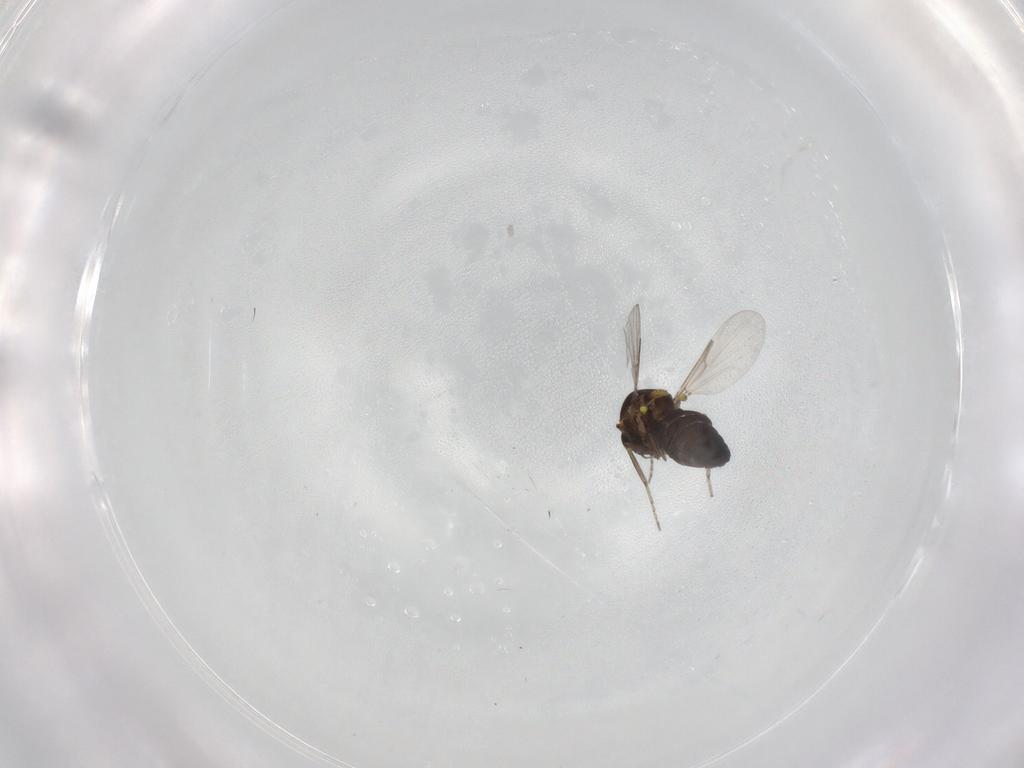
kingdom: Animalia
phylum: Arthropoda
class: Insecta
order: Diptera
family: Ceratopogonidae
